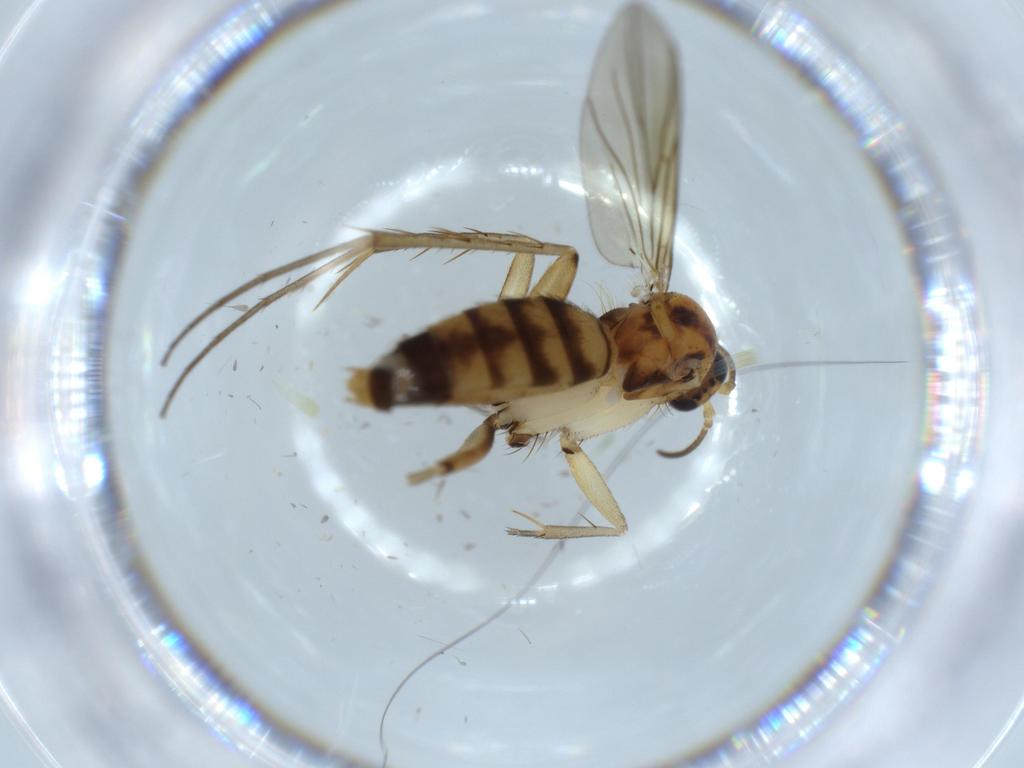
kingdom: Animalia
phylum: Arthropoda
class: Insecta
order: Diptera
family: Sciaridae
